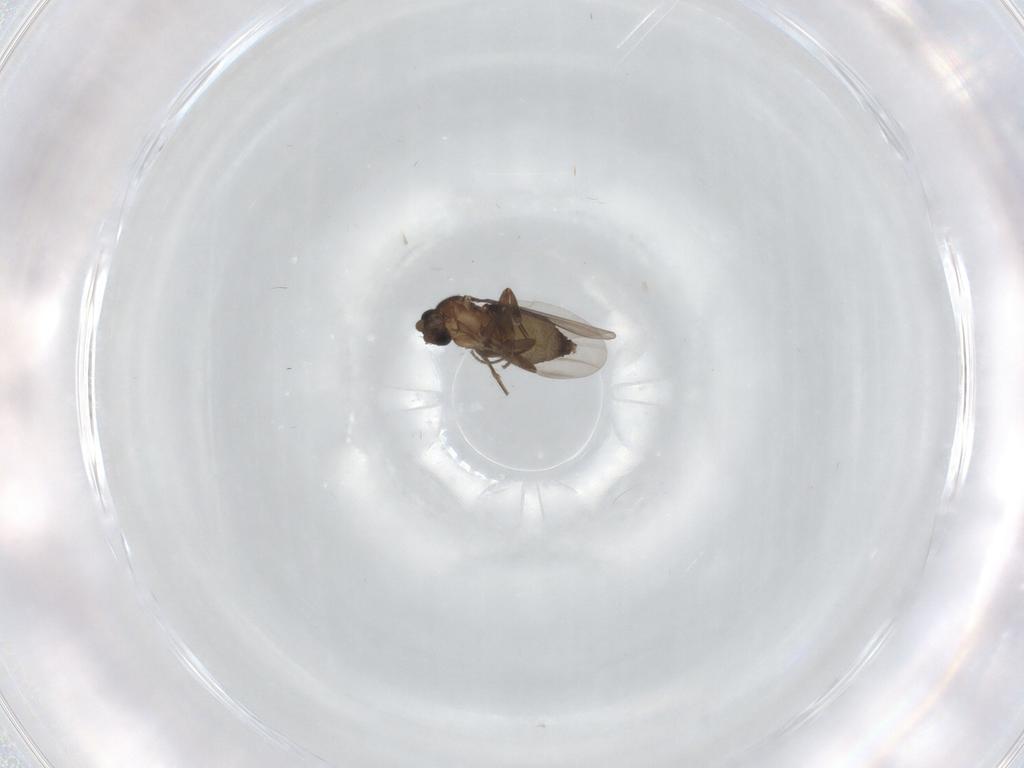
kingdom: Animalia
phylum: Arthropoda
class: Insecta
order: Diptera
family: Phoridae
